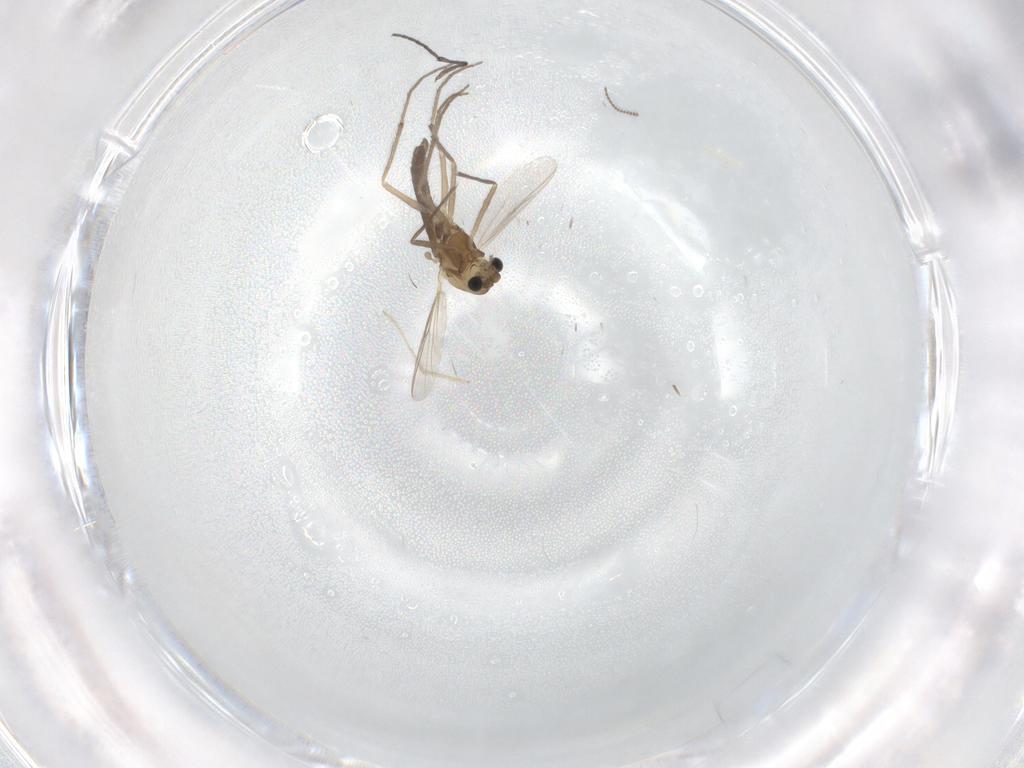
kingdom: Animalia
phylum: Arthropoda
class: Insecta
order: Diptera
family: Chironomidae
